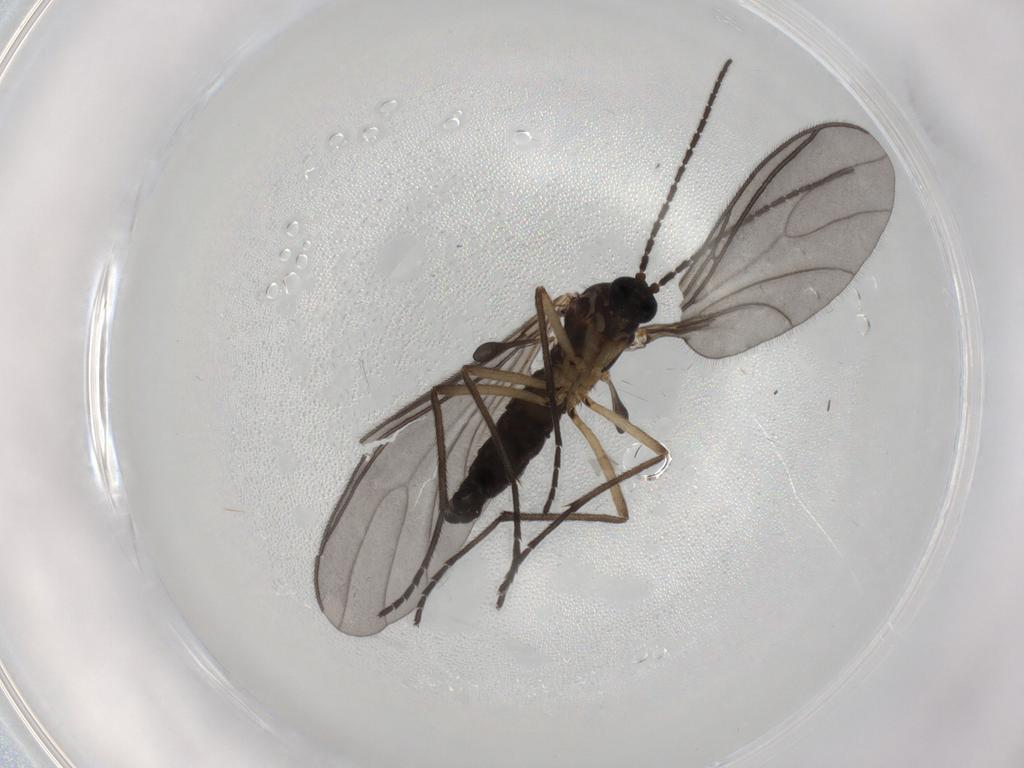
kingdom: Animalia
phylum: Arthropoda
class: Insecta
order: Diptera
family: Sciaridae
